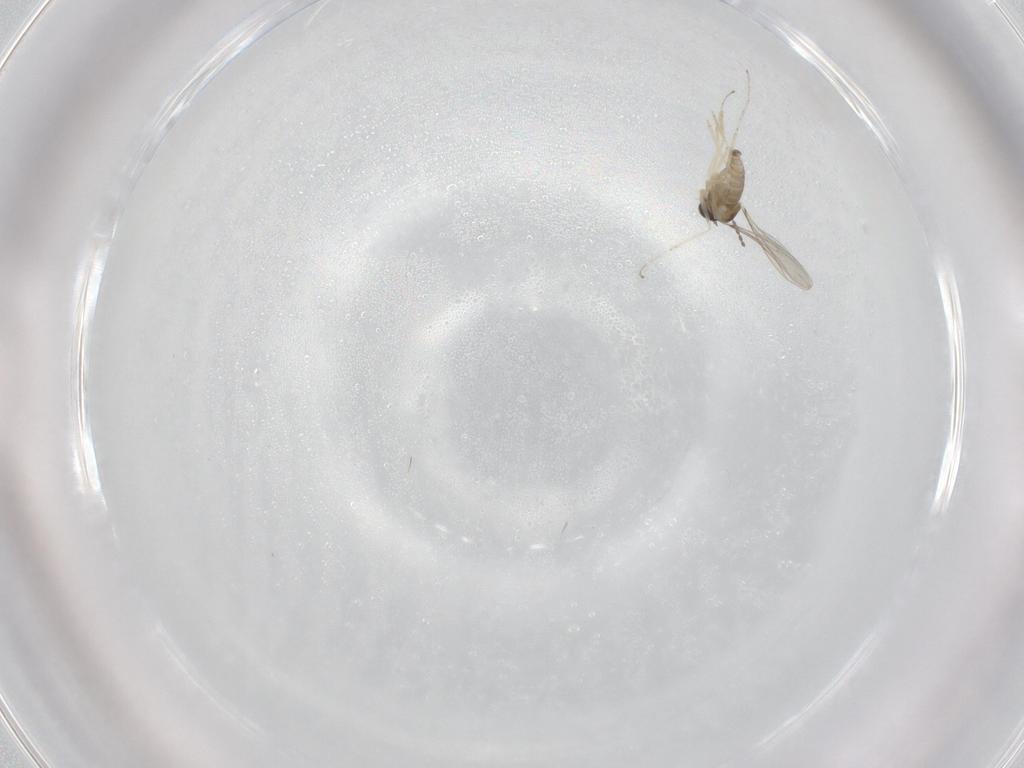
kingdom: Animalia
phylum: Arthropoda
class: Insecta
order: Diptera
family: Cecidomyiidae
